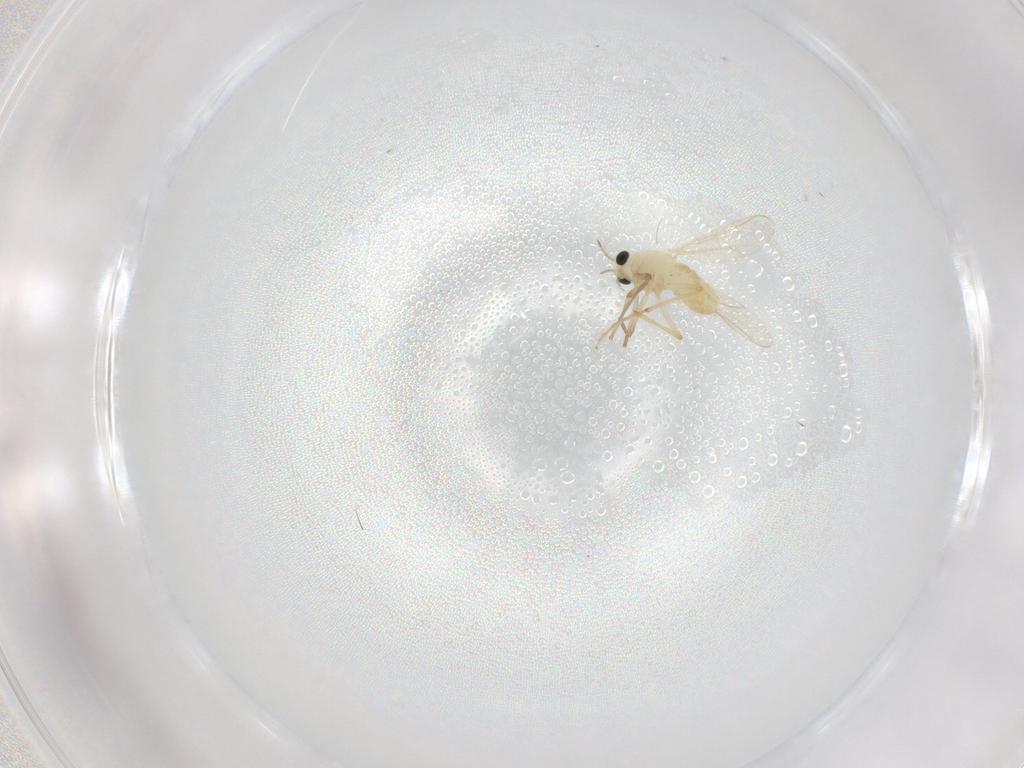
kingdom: Animalia
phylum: Arthropoda
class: Insecta
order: Diptera
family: Chironomidae
